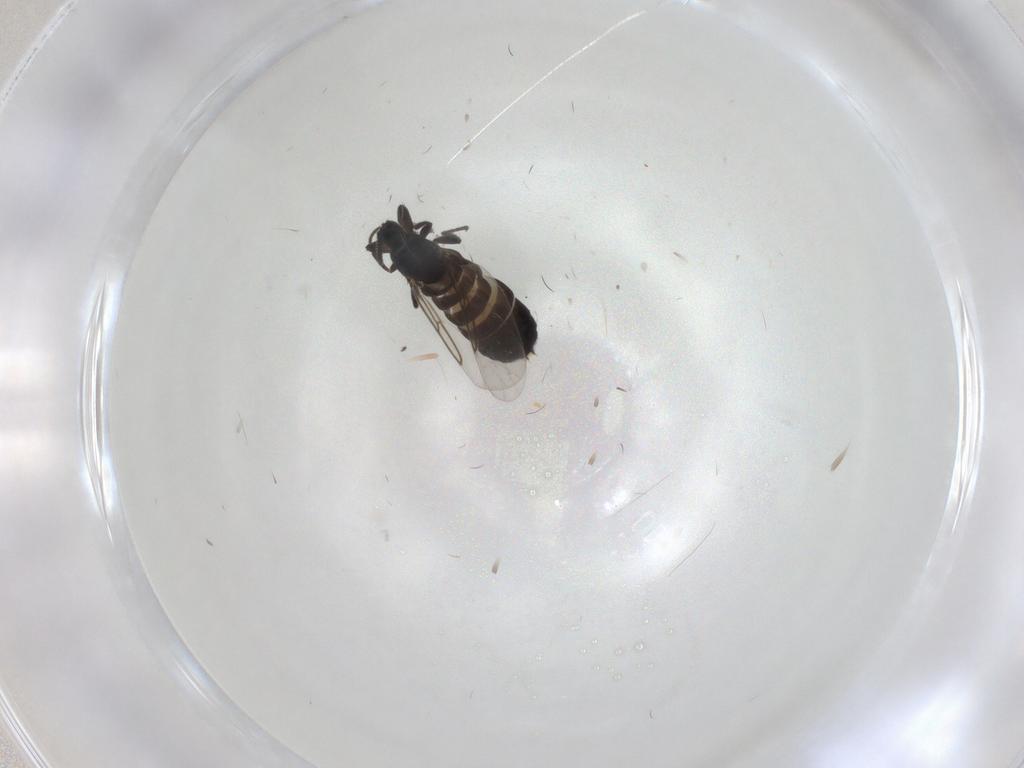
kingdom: Animalia
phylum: Arthropoda
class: Insecta
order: Diptera
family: Scatopsidae
